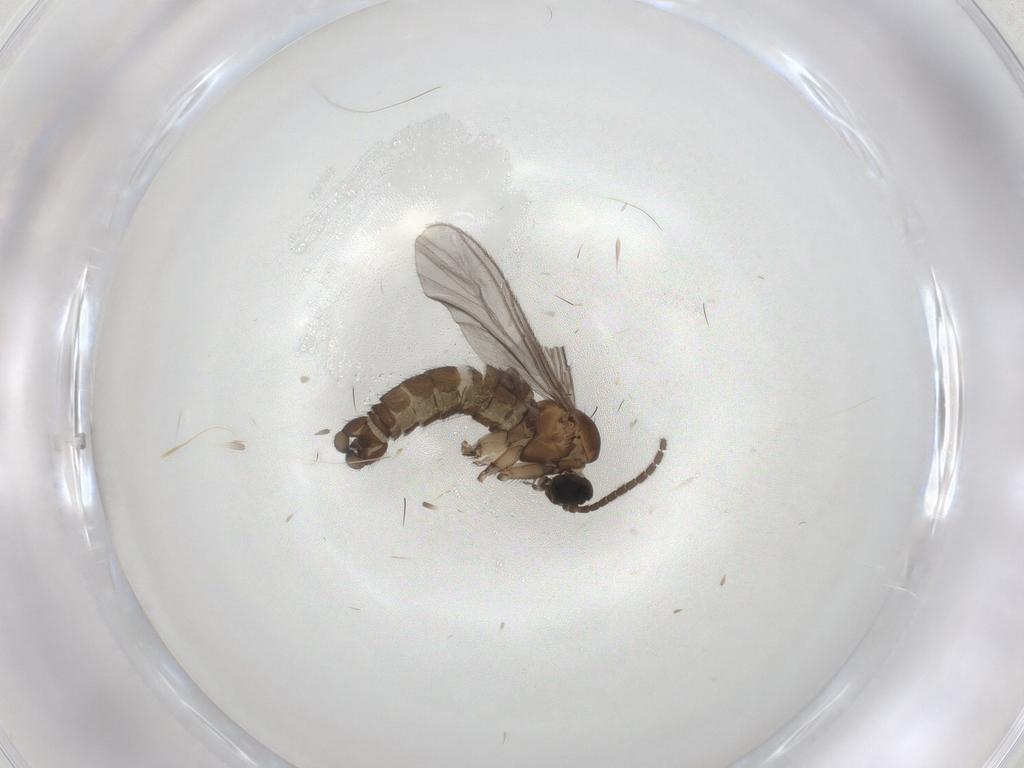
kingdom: Animalia
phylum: Arthropoda
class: Insecta
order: Diptera
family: Sciaridae
